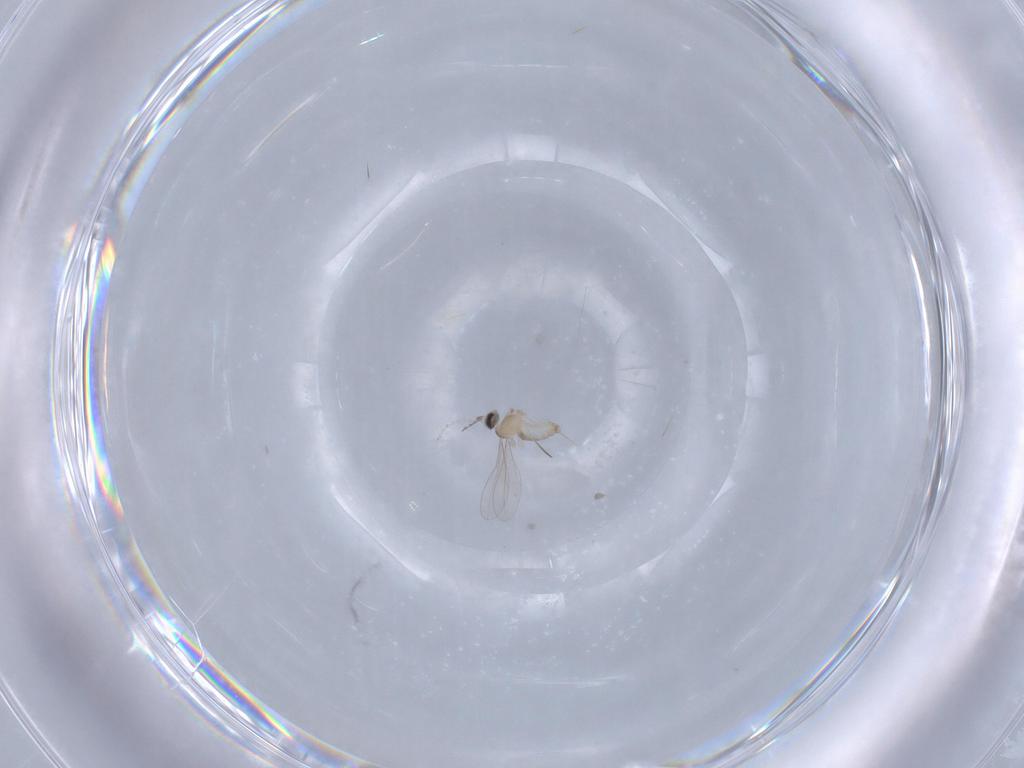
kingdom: Animalia
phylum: Arthropoda
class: Insecta
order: Diptera
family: Cecidomyiidae
